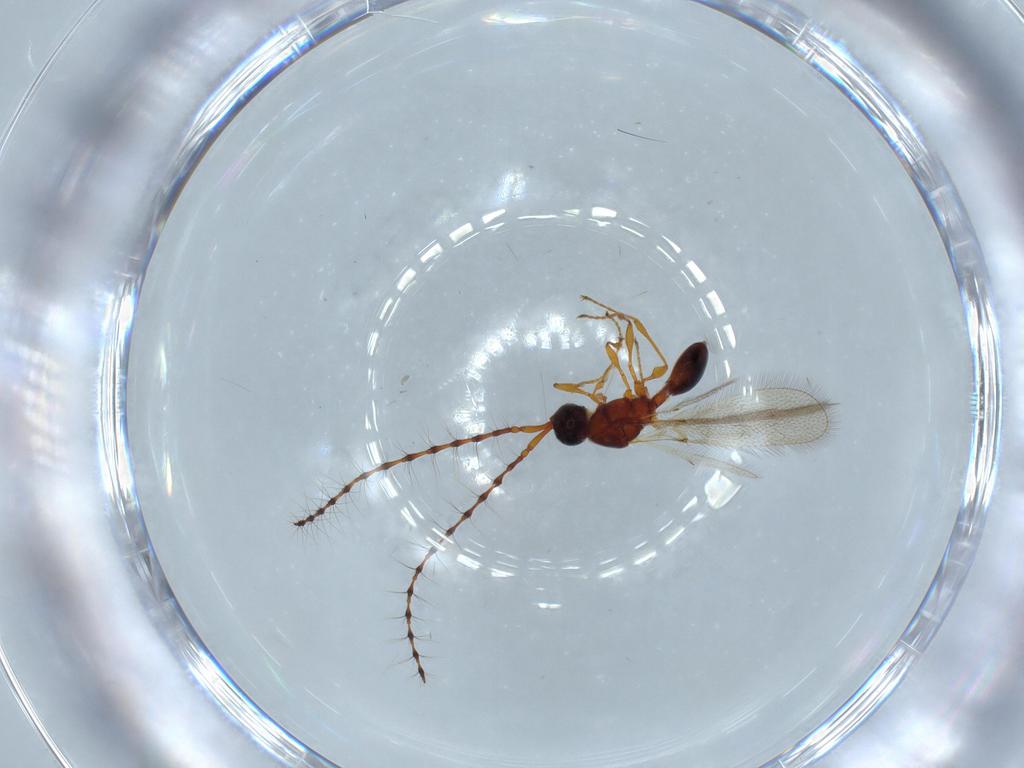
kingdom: Animalia
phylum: Arthropoda
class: Insecta
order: Hymenoptera
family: Diapriidae
